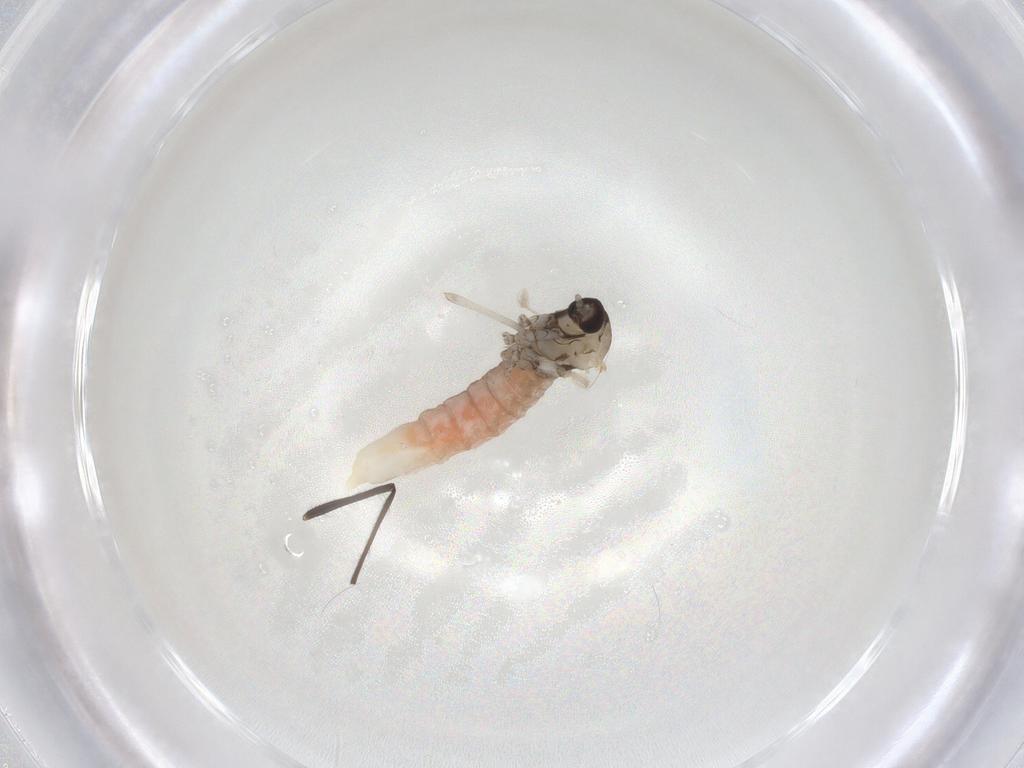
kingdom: Animalia
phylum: Arthropoda
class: Insecta
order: Diptera
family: Cecidomyiidae
